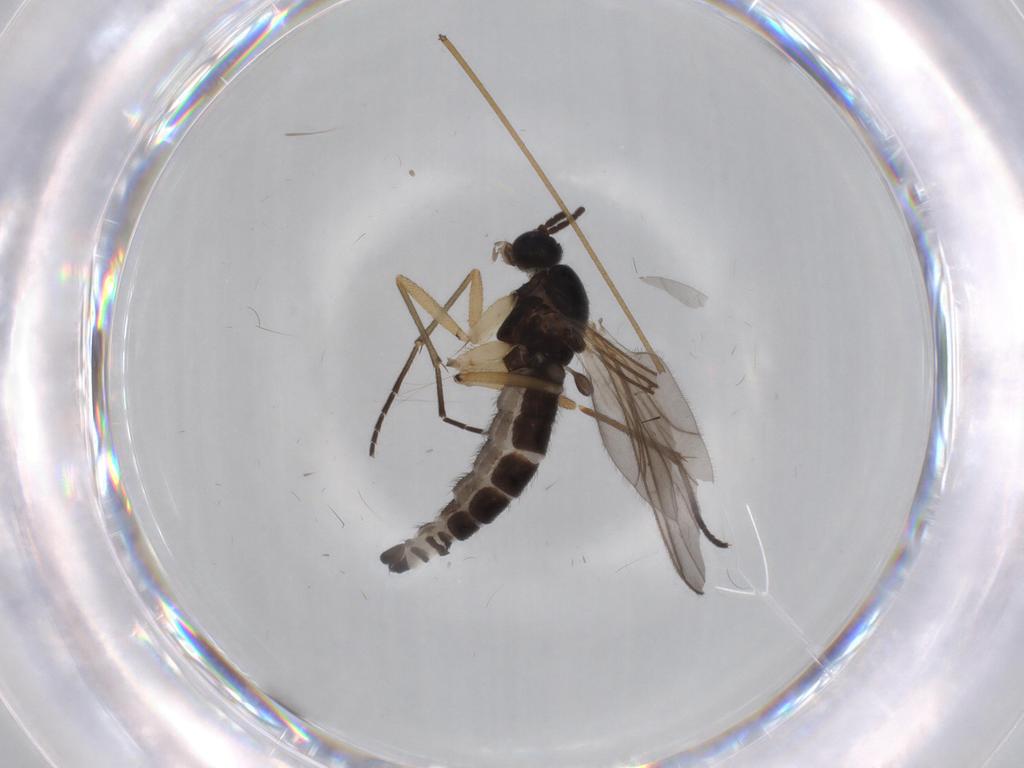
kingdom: Animalia
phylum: Arthropoda
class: Insecta
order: Diptera
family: Sciaridae
